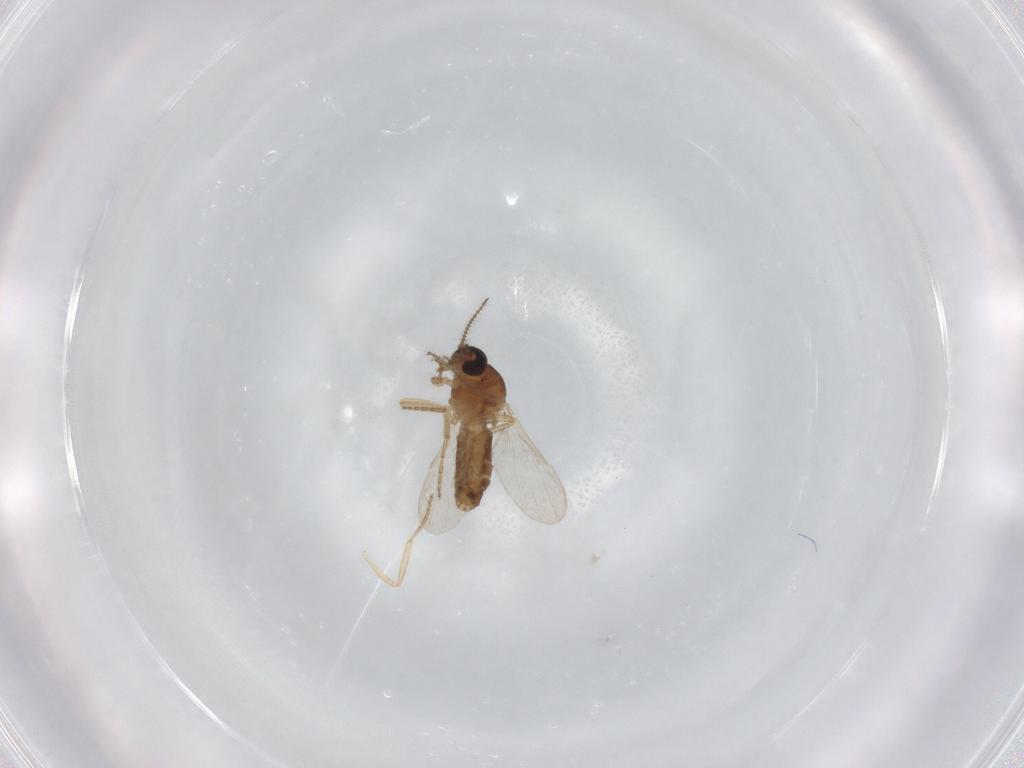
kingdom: Animalia
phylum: Arthropoda
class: Insecta
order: Diptera
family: Ceratopogonidae
